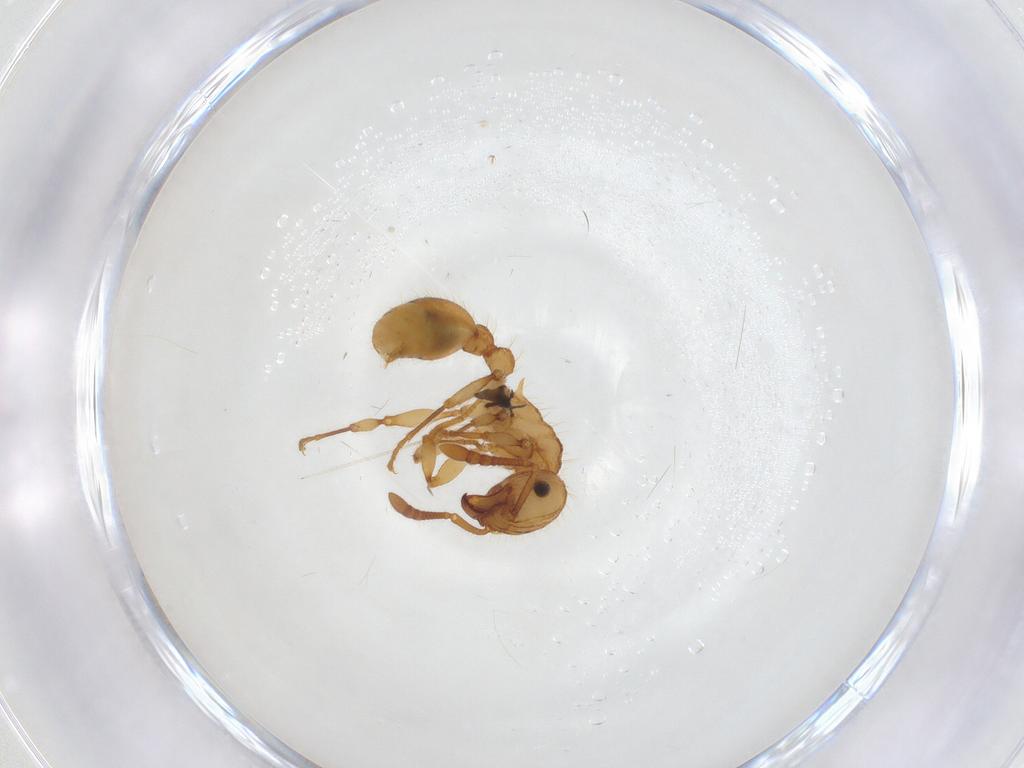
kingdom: Animalia
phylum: Arthropoda
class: Insecta
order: Hymenoptera
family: Formicidae
